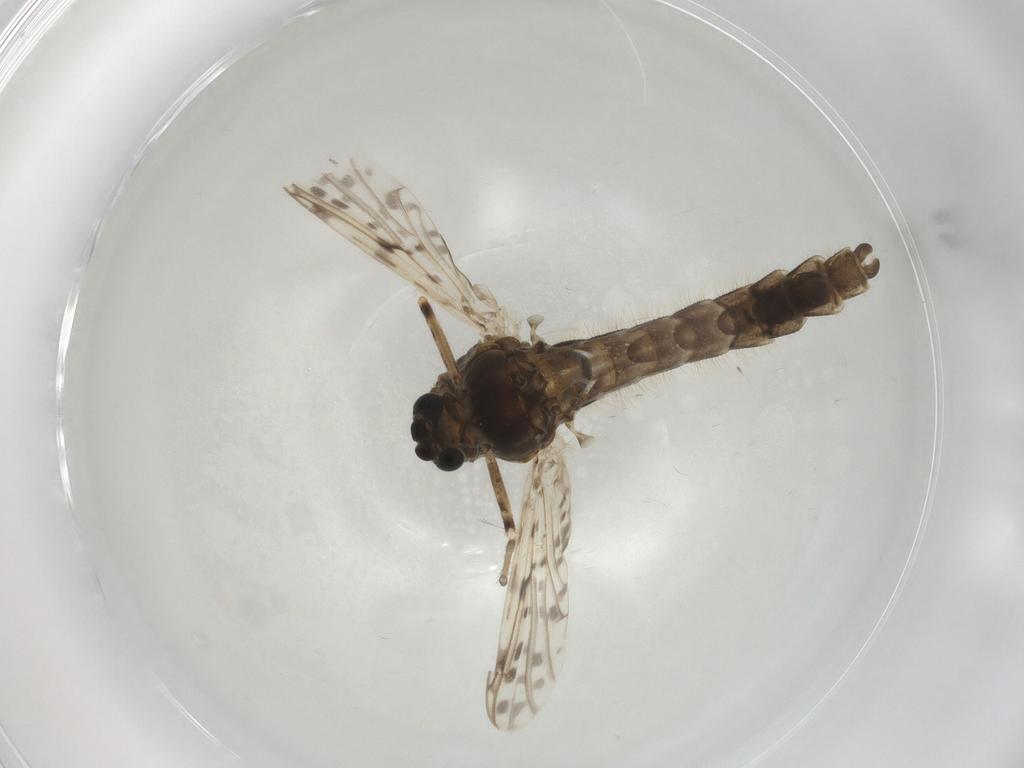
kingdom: Animalia
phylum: Arthropoda
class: Insecta
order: Diptera
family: Chironomidae
